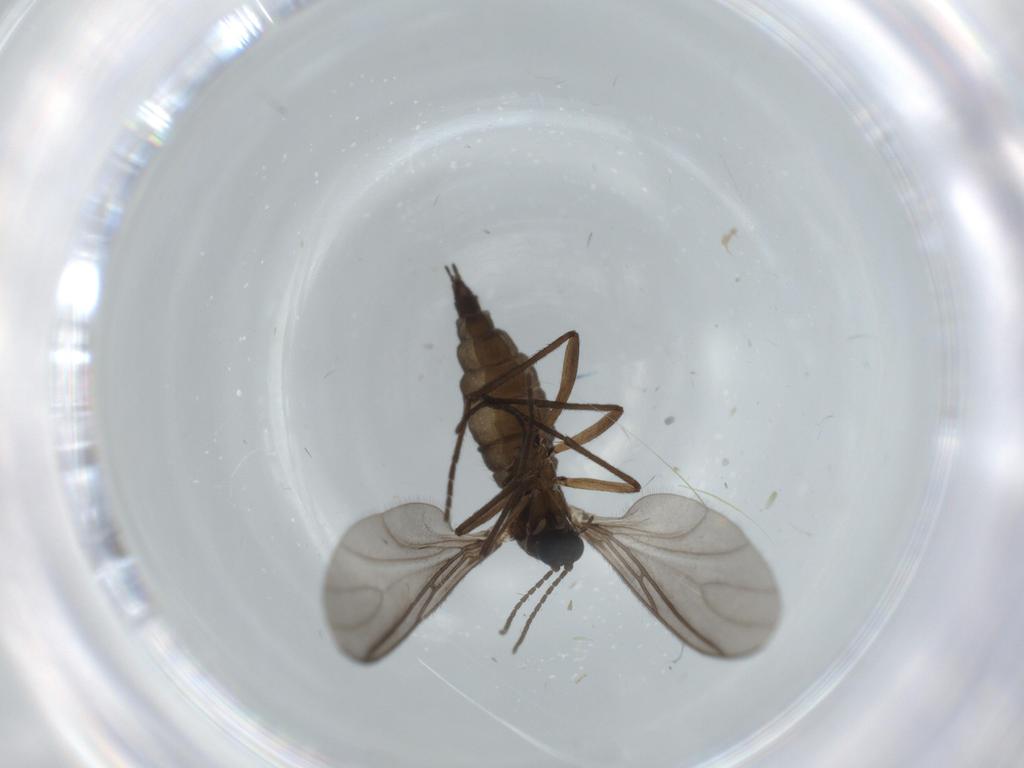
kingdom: Animalia
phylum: Arthropoda
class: Insecta
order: Diptera
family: Sciaridae
